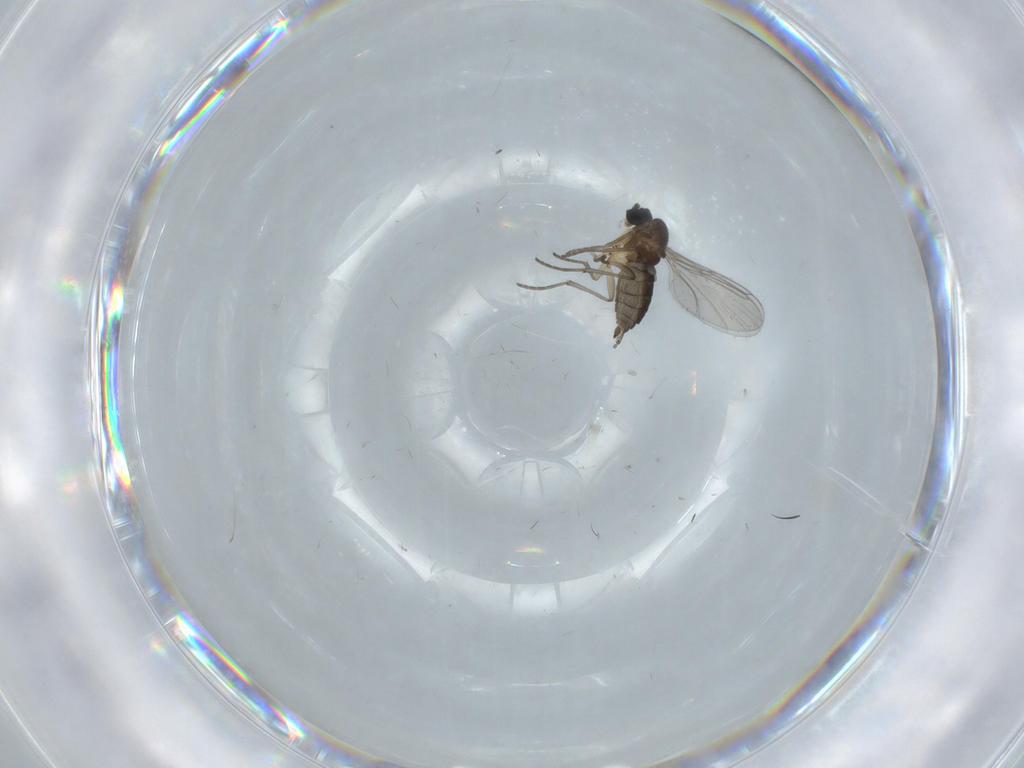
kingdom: Animalia
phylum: Arthropoda
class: Insecta
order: Diptera
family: Sciaridae
